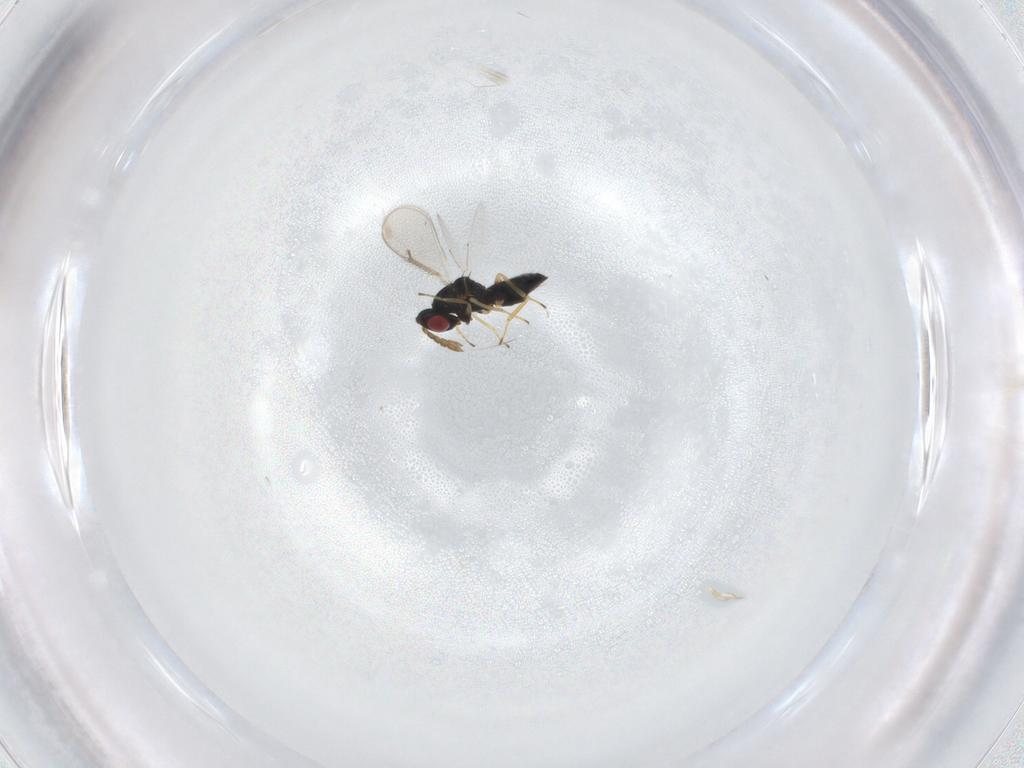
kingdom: Animalia
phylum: Arthropoda
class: Insecta
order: Hymenoptera
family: Eulophidae
